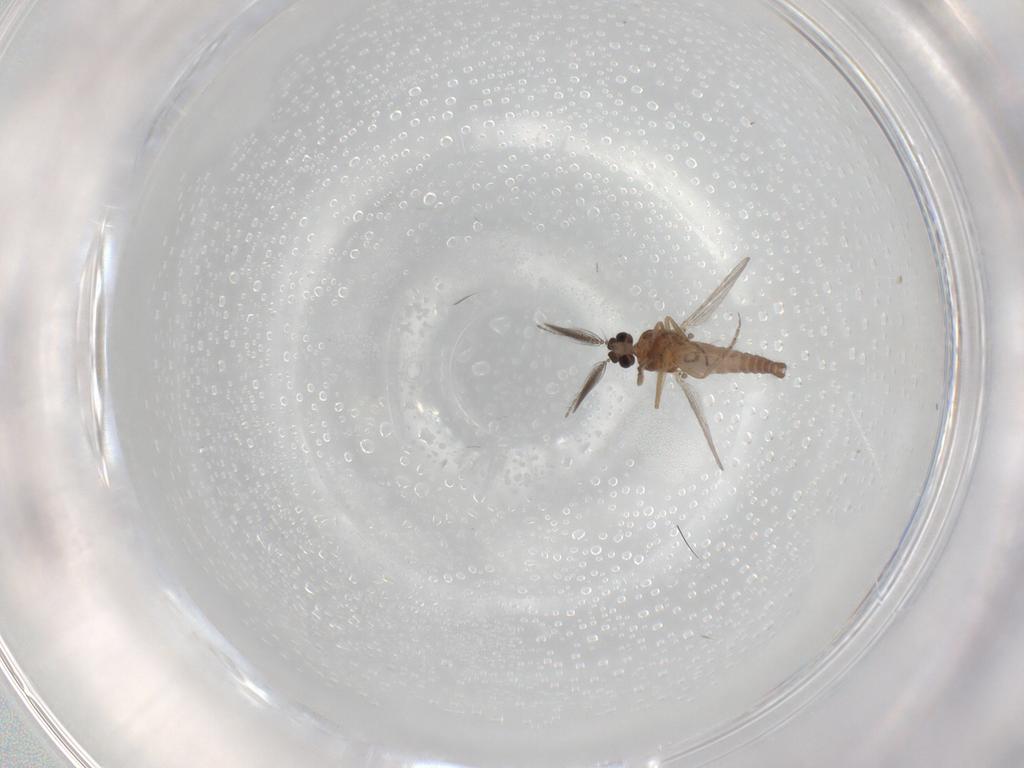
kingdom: Animalia
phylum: Arthropoda
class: Insecta
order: Diptera
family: Ceratopogonidae
